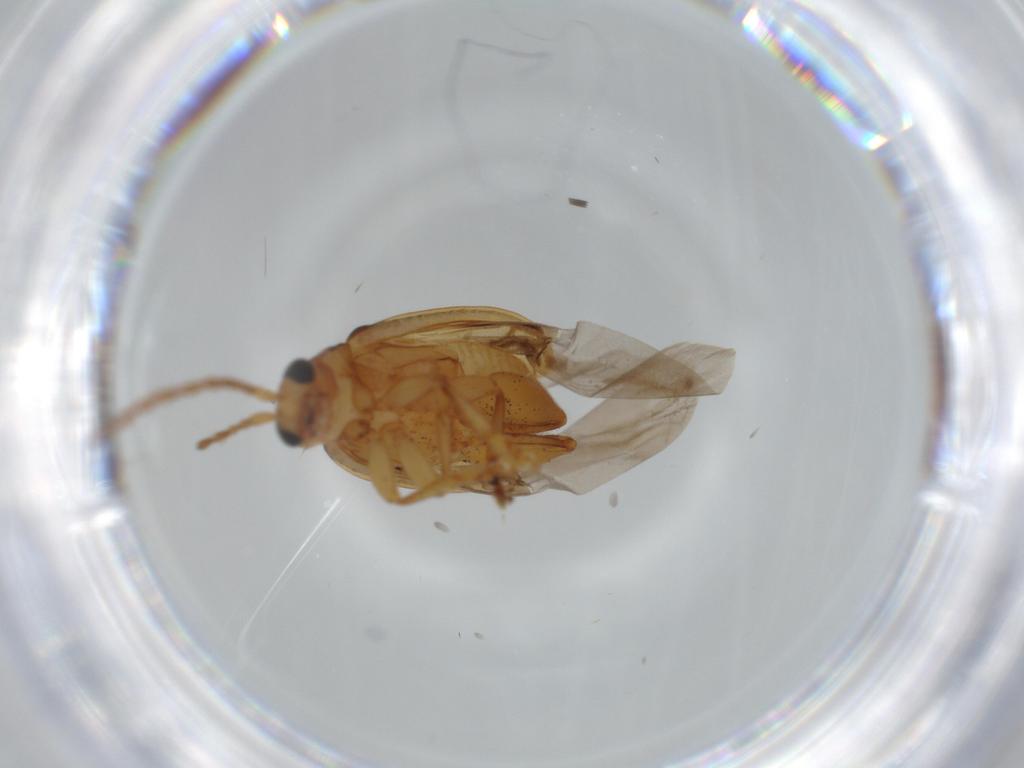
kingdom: Animalia
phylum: Arthropoda
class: Insecta
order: Coleoptera
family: Chrysomelidae
